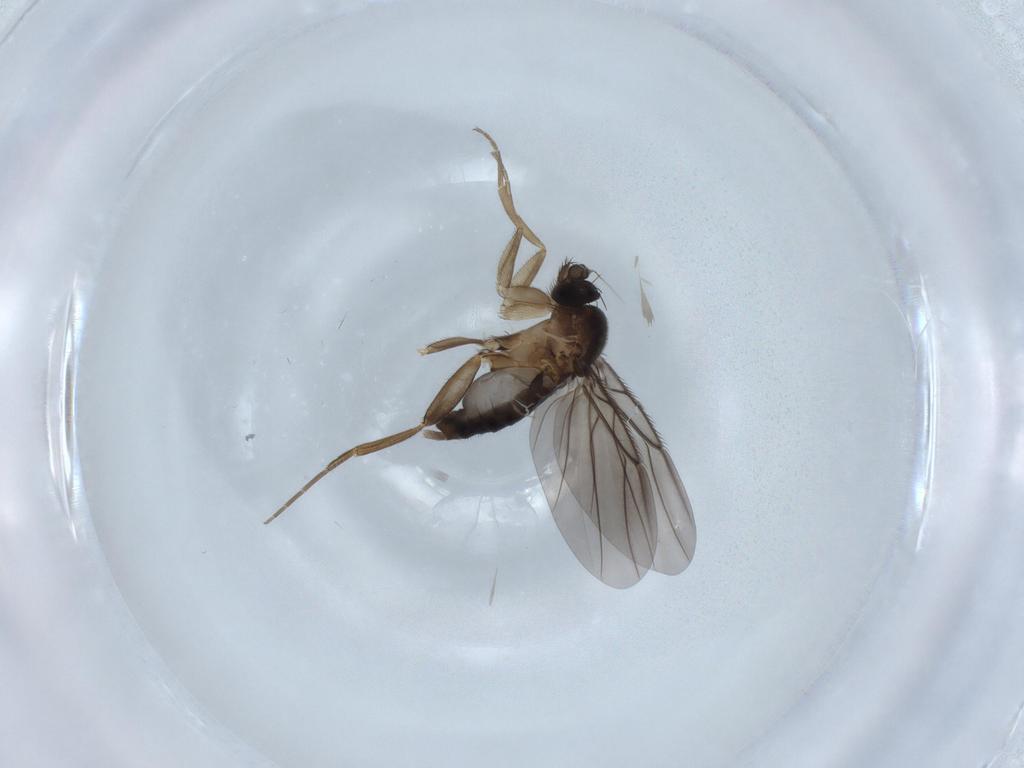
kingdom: Animalia
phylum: Arthropoda
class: Insecta
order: Diptera
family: Phoridae
